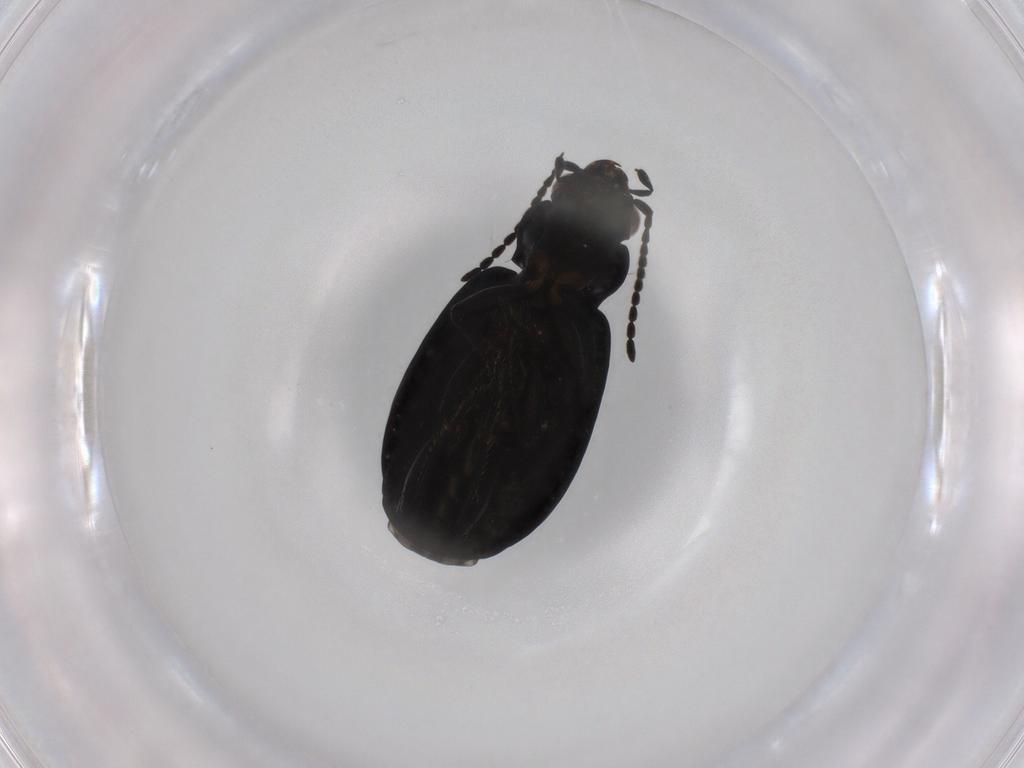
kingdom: Animalia
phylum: Arthropoda
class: Insecta
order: Coleoptera
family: Carabidae
